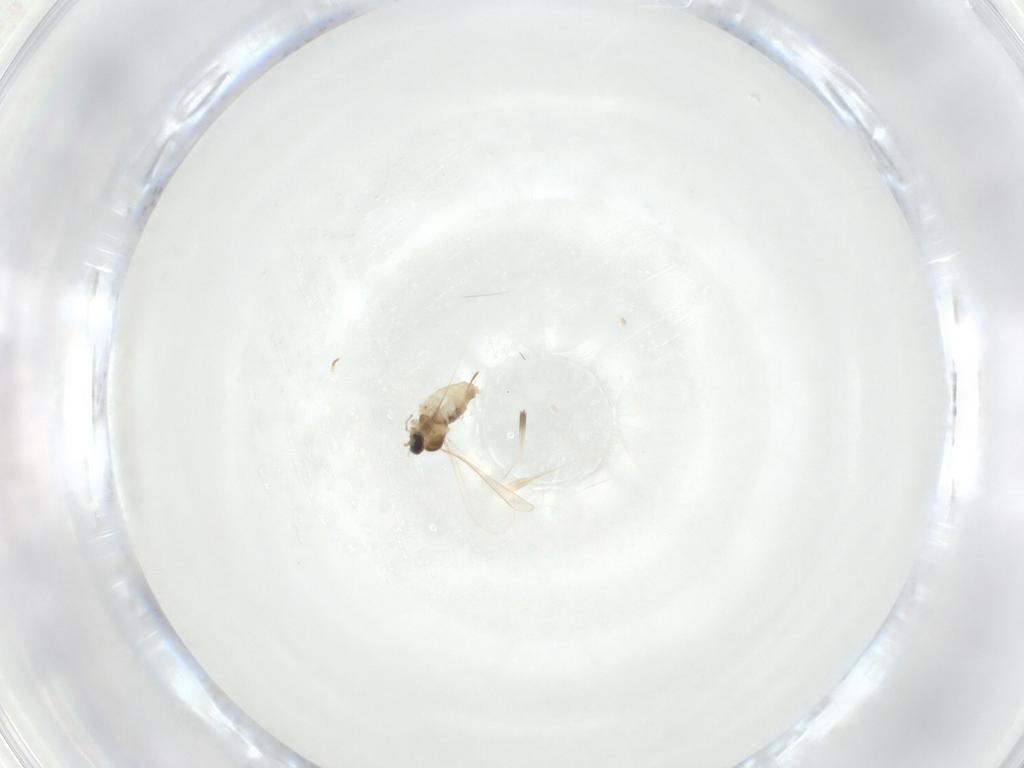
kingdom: Animalia
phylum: Arthropoda
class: Insecta
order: Diptera
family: Cecidomyiidae
